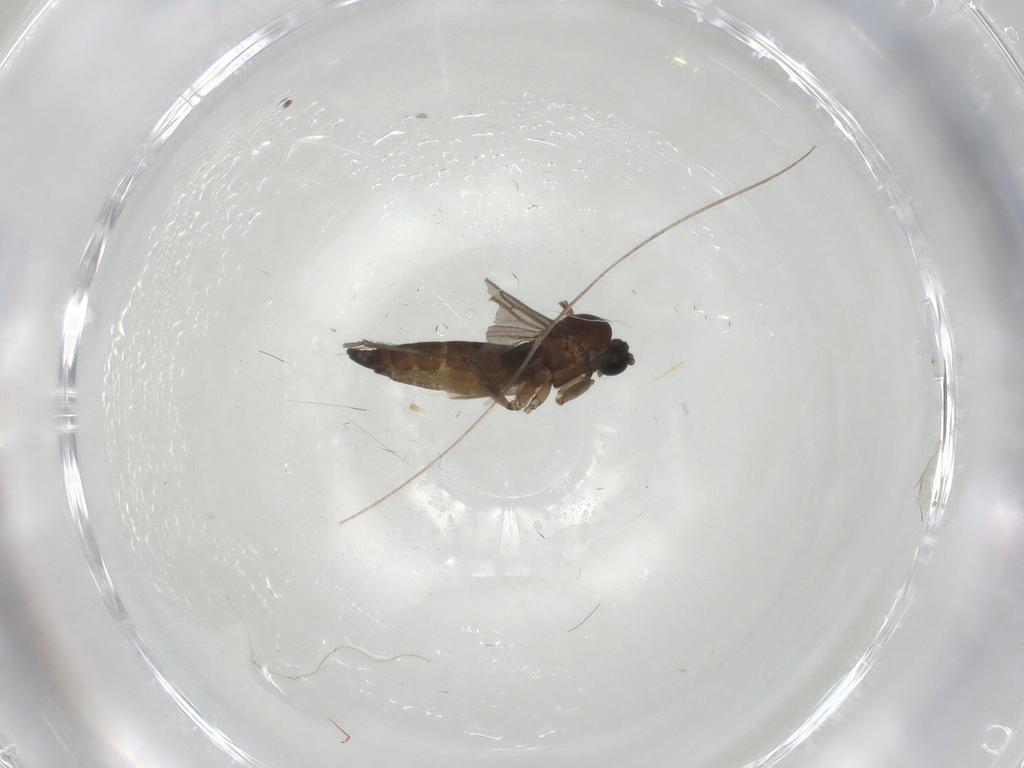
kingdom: Animalia
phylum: Arthropoda
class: Insecta
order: Diptera
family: Sciaridae
